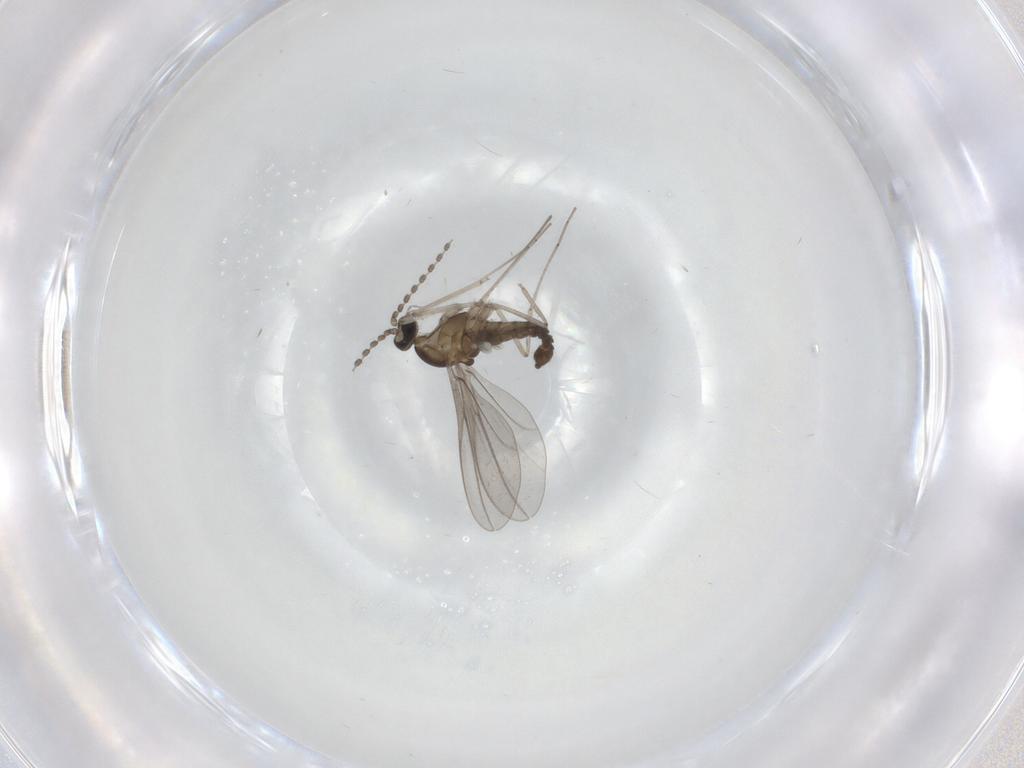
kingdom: Animalia
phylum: Arthropoda
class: Insecta
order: Diptera
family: Cecidomyiidae
